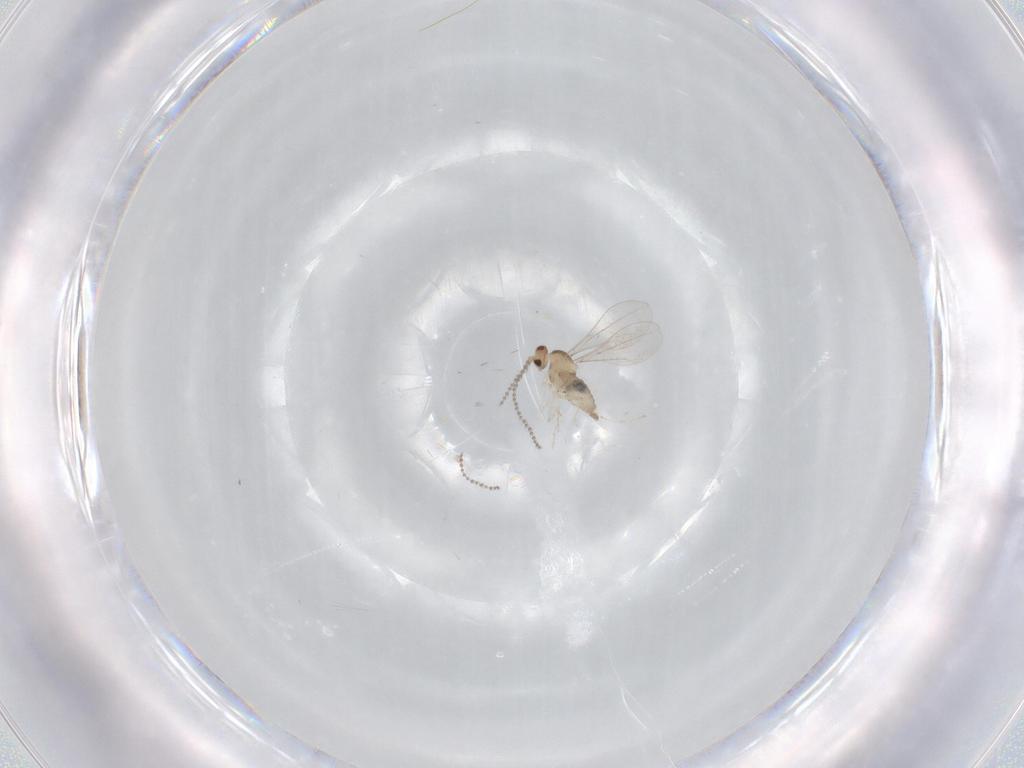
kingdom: Animalia
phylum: Arthropoda
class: Insecta
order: Diptera
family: Cecidomyiidae
